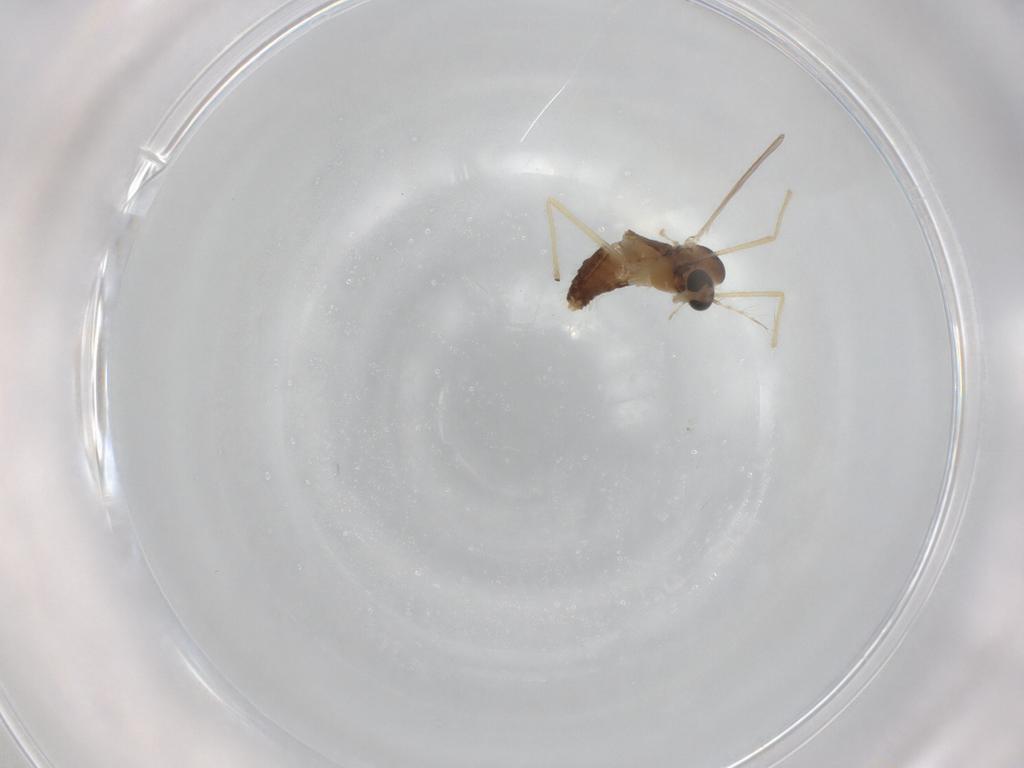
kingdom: Animalia
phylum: Arthropoda
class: Insecta
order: Diptera
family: Chironomidae
